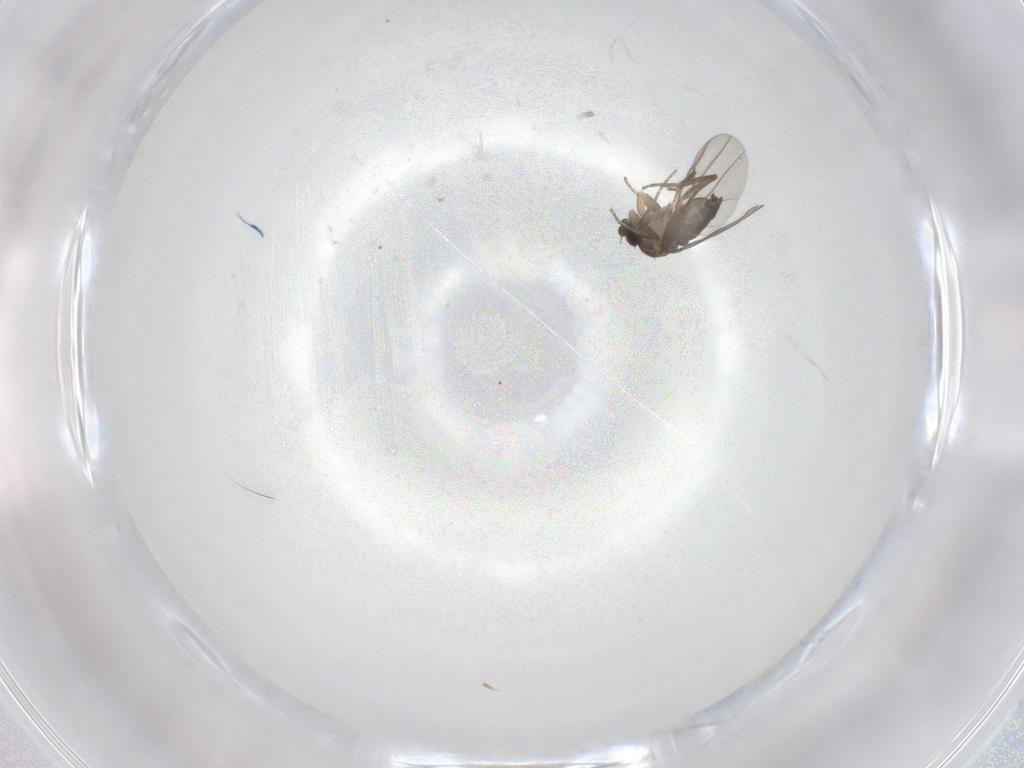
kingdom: Animalia
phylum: Arthropoda
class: Insecta
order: Diptera
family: Phoridae
